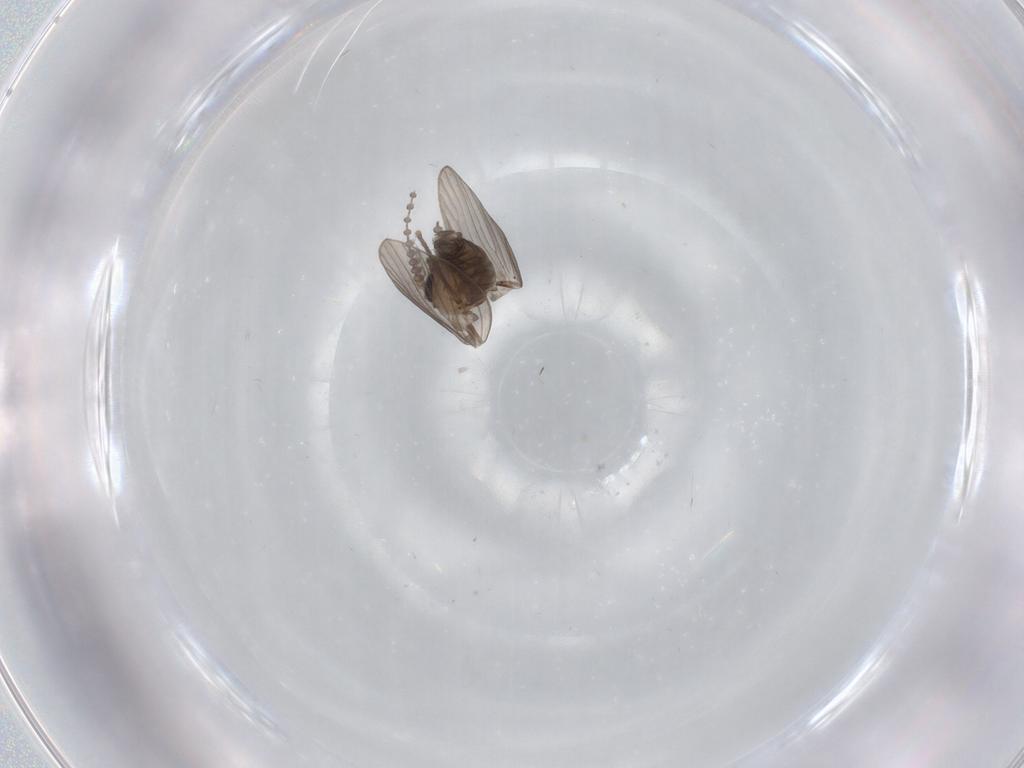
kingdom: Animalia
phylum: Arthropoda
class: Insecta
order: Diptera
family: Psychodidae
